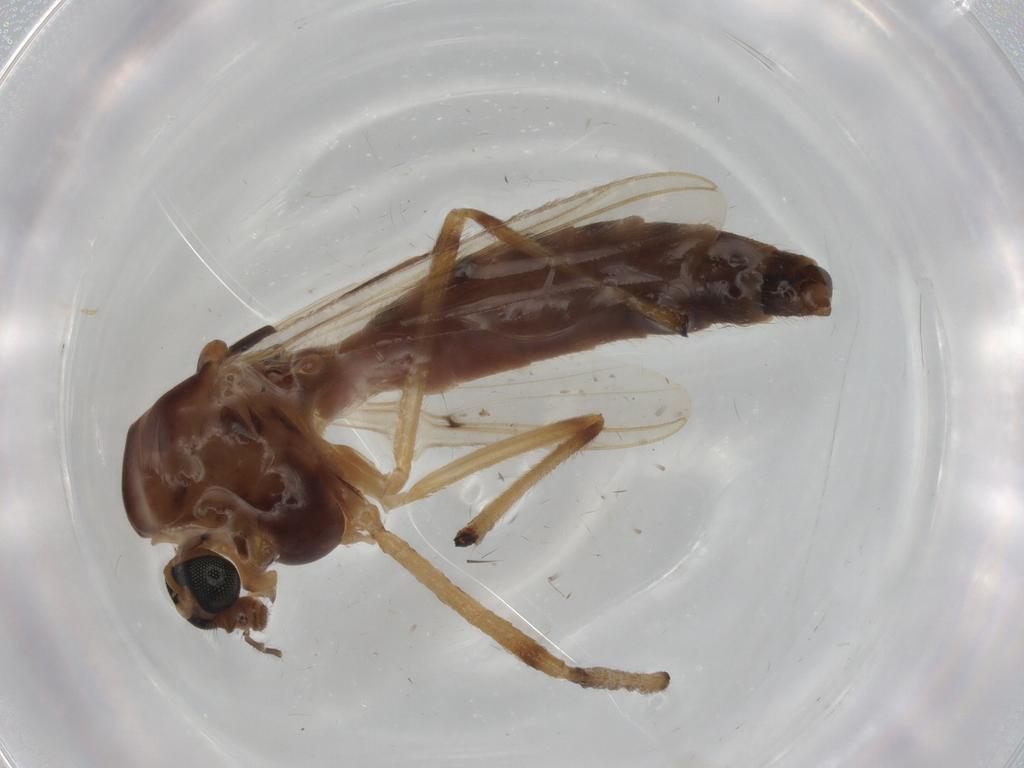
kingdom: Animalia
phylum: Arthropoda
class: Insecta
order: Diptera
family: Chironomidae
